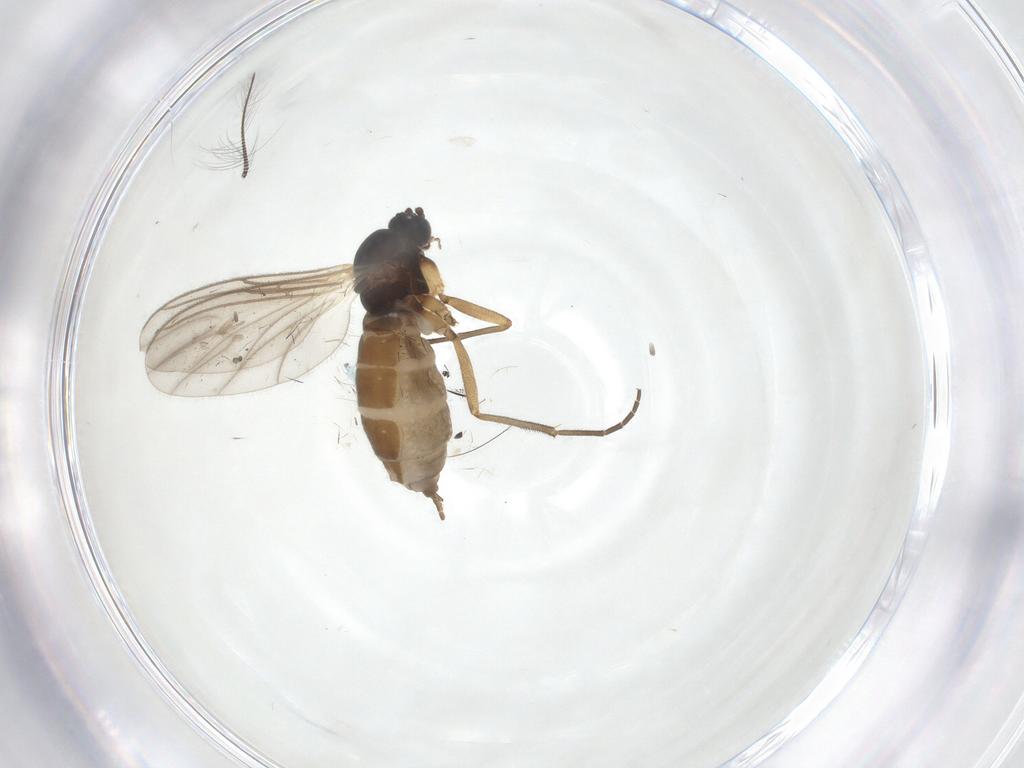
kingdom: Animalia
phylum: Arthropoda
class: Insecta
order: Diptera
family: Sciaridae
